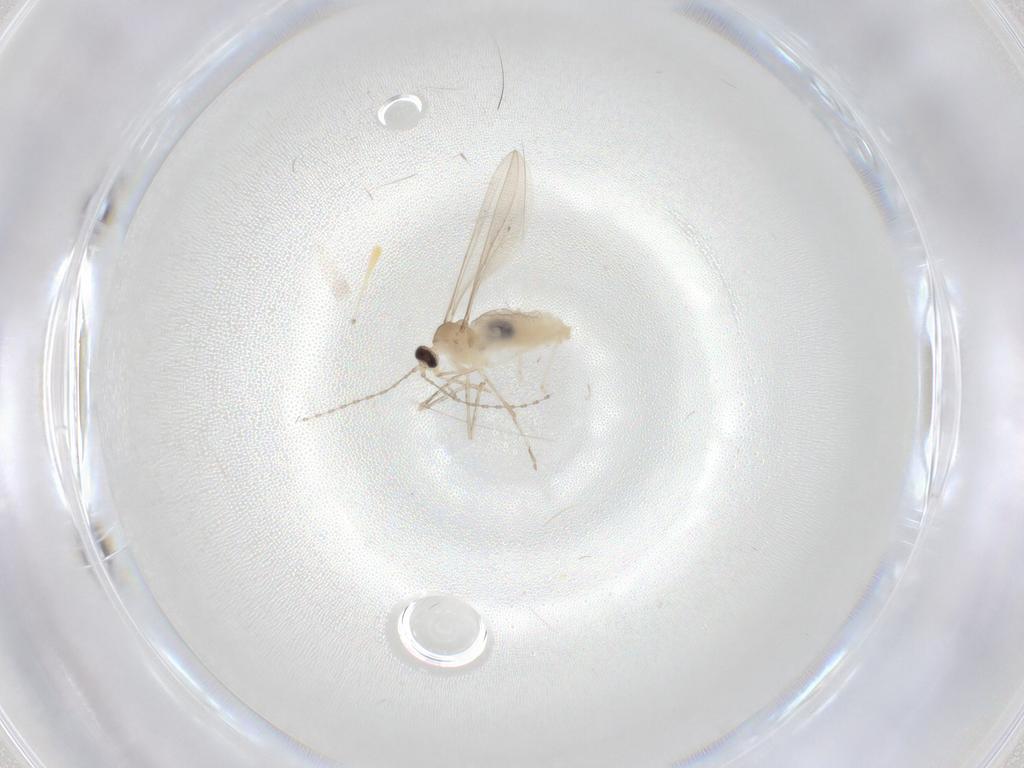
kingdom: Animalia
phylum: Arthropoda
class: Insecta
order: Diptera
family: Cecidomyiidae
